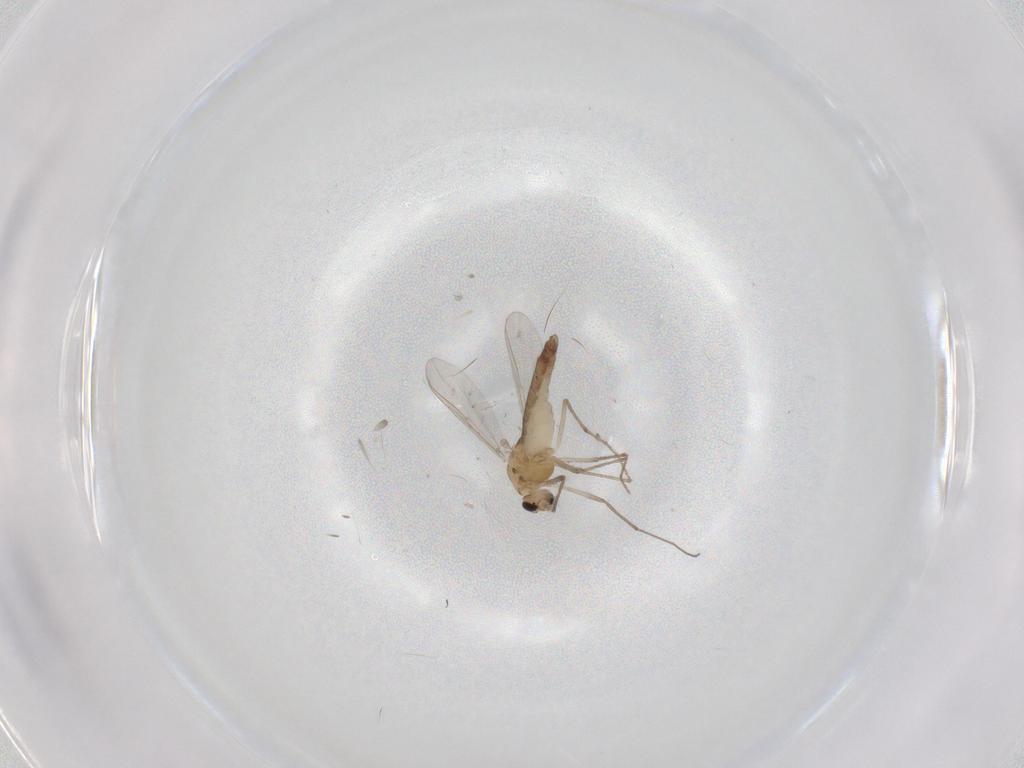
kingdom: Animalia
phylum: Arthropoda
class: Insecta
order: Diptera
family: Chironomidae
